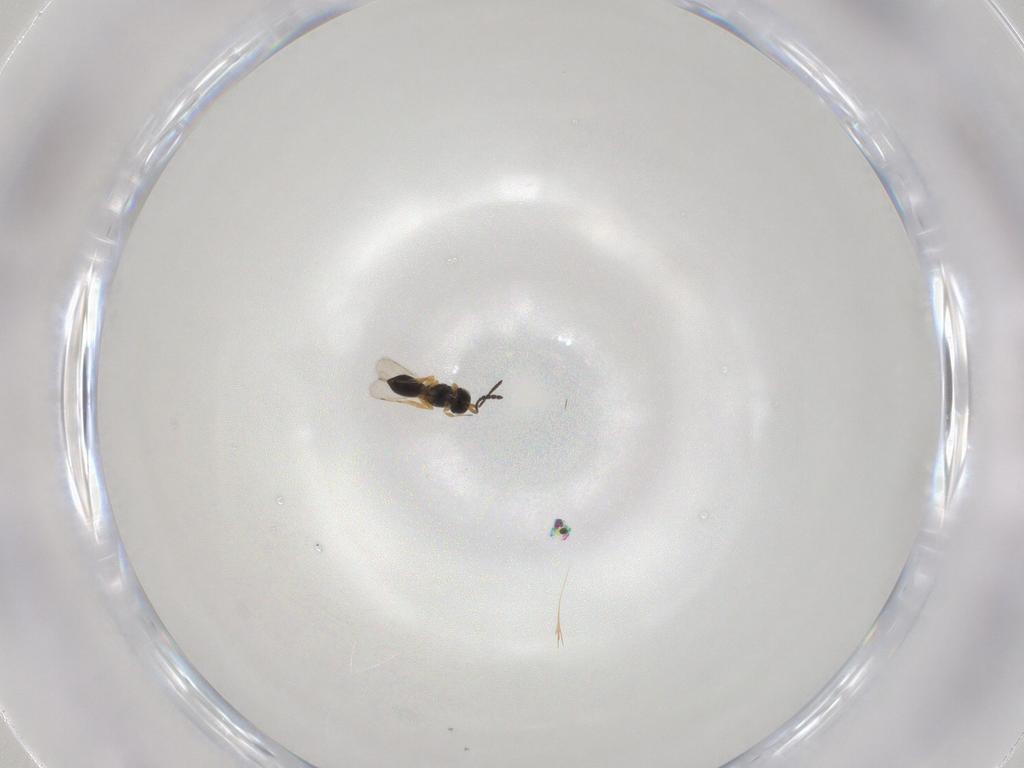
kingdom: Animalia
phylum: Arthropoda
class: Insecta
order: Hymenoptera
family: Scelionidae
